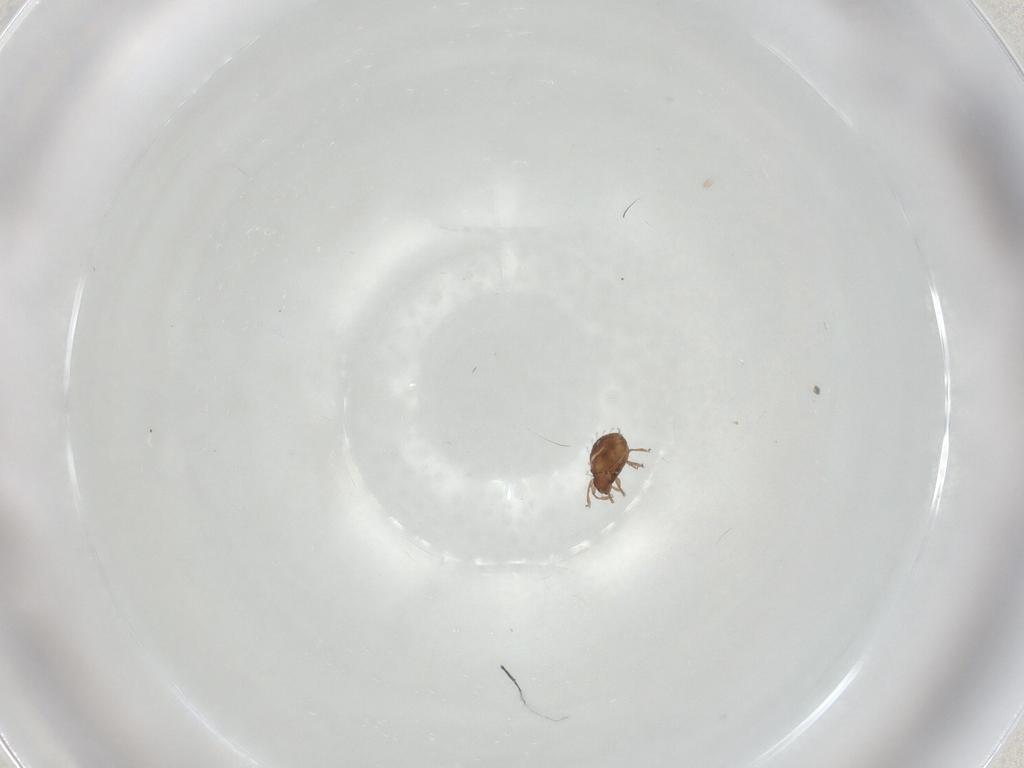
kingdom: Animalia
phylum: Arthropoda
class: Arachnida
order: Sarcoptiformes
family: Scheloribatidae
